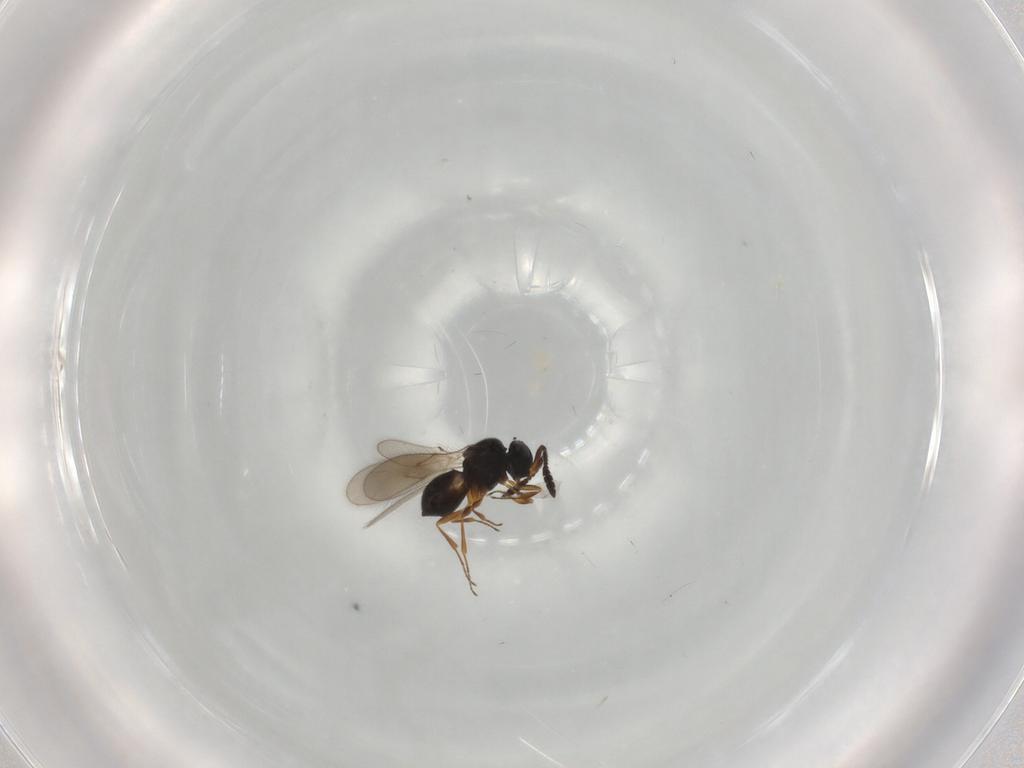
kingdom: Animalia
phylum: Arthropoda
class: Insecta
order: Hymenoptera
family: Scelionidae
